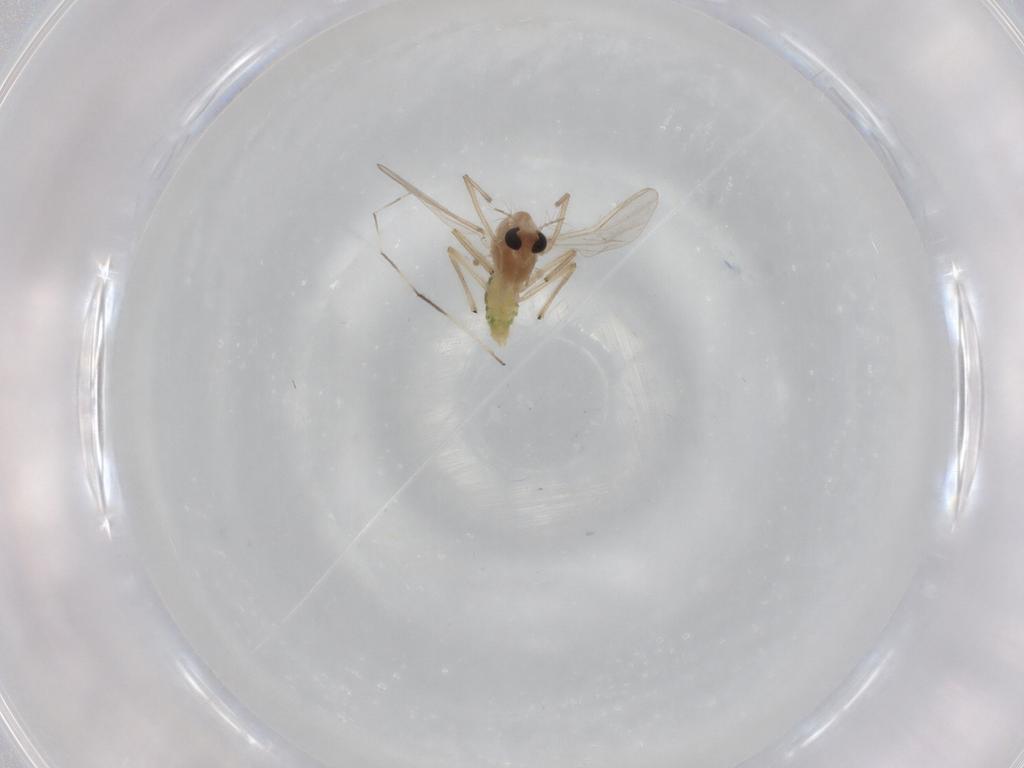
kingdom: Animalia
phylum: Arthropoda
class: Insecta
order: Diptera
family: Chironomidae
